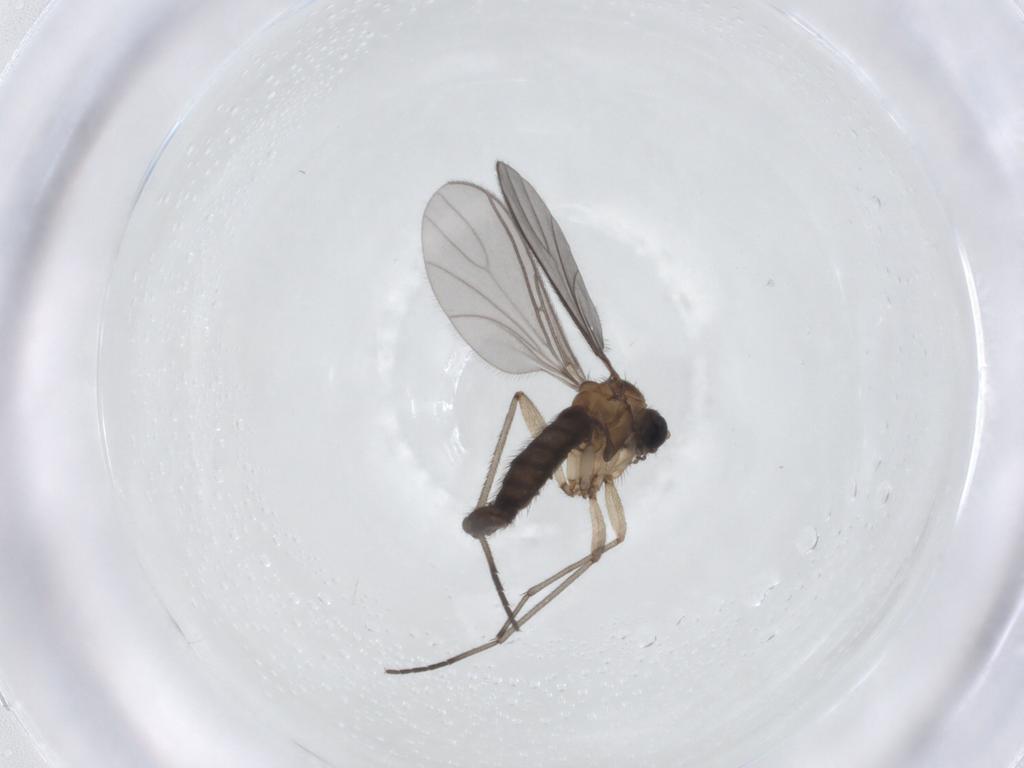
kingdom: Animalia
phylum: Arthropoda
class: Insecta
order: Diptera
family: Sciaridae
